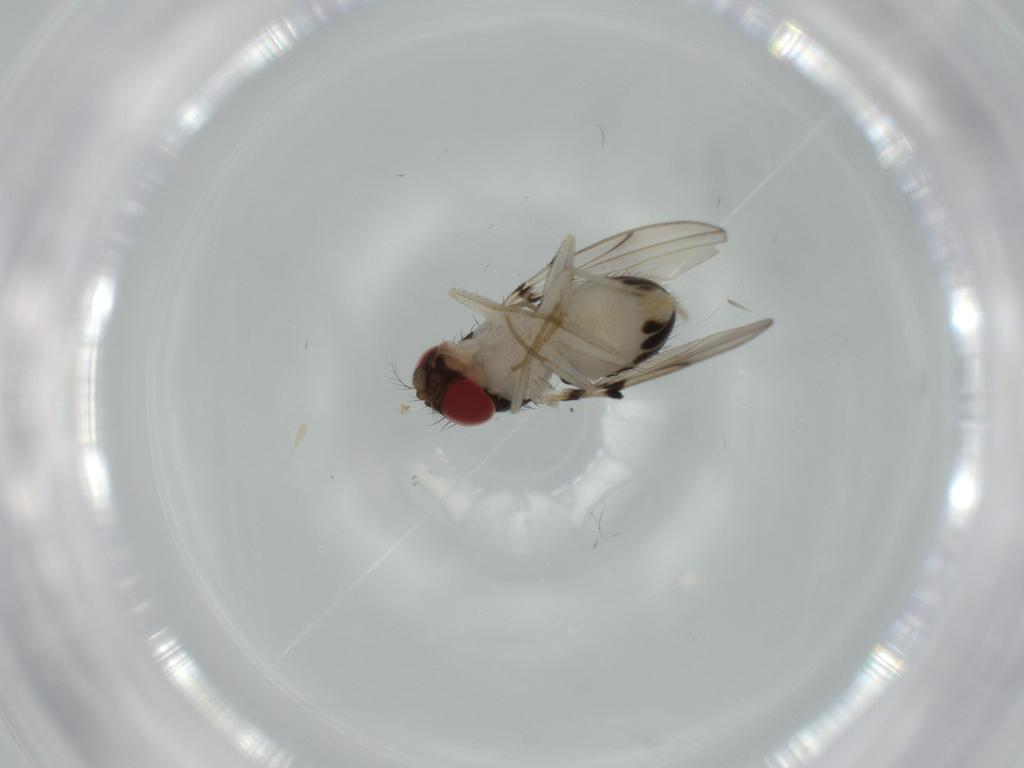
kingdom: Animalia
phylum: Arthropoda
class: Insecta
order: Diptera
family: Drosophilidae
